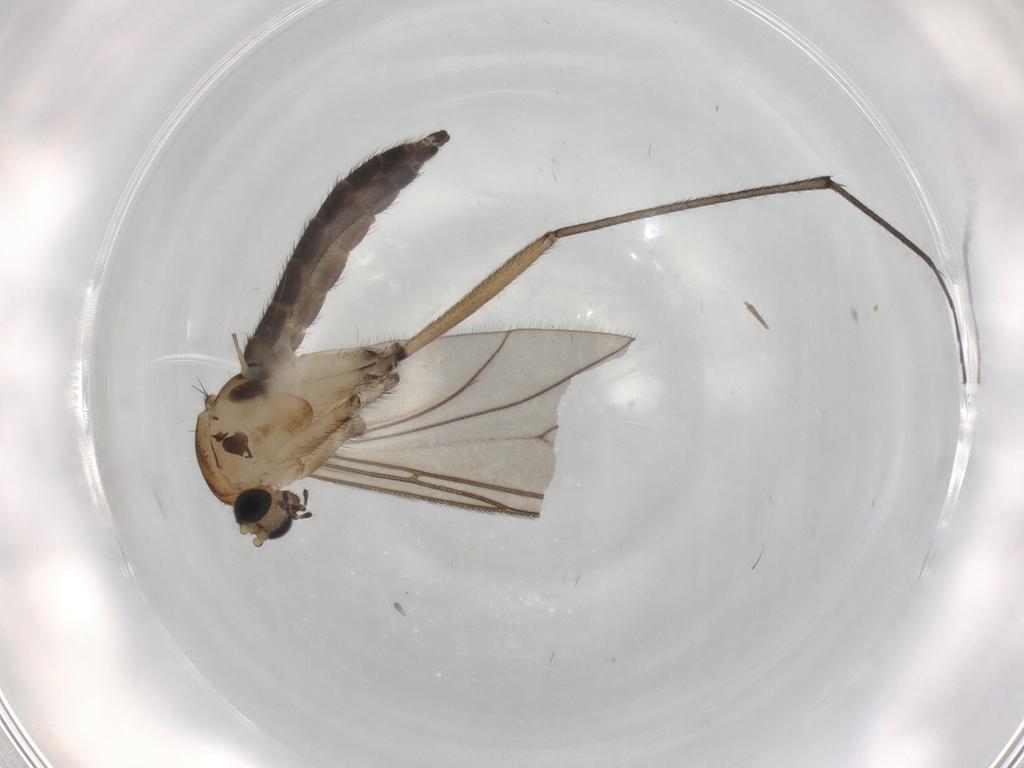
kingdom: Animalia
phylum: Arthropoda
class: Insecta
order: Diptera
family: Sciaridae
